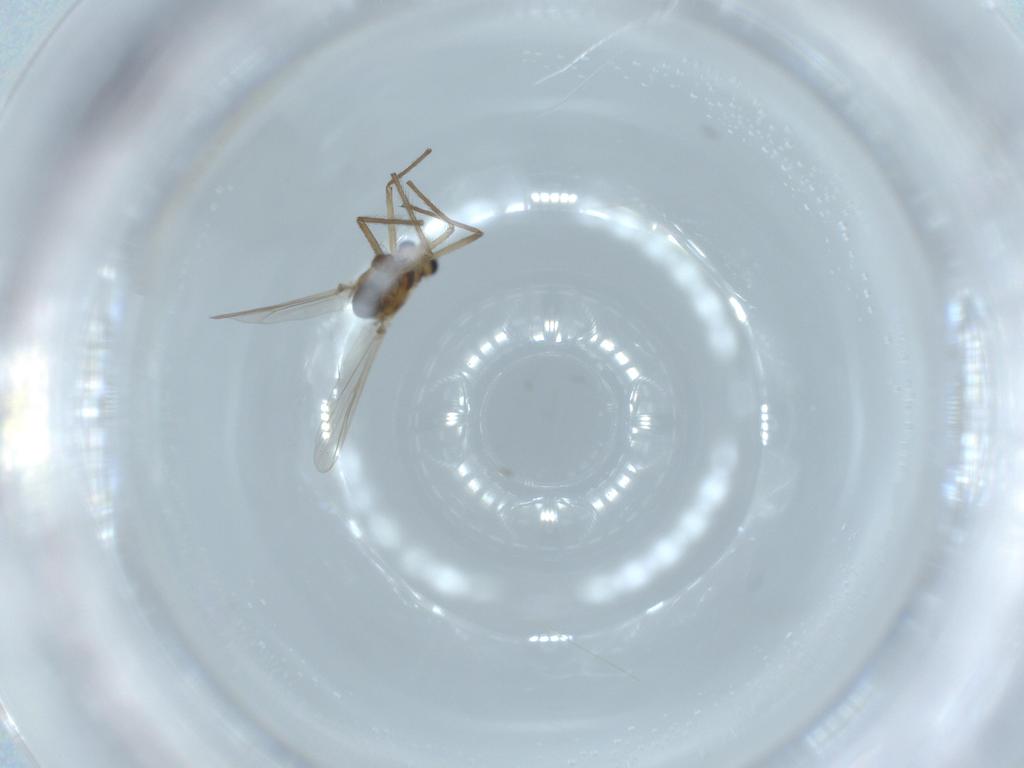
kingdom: Animalia
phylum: Arthropoda
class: Insecta
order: Diptera
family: Chironomidae
